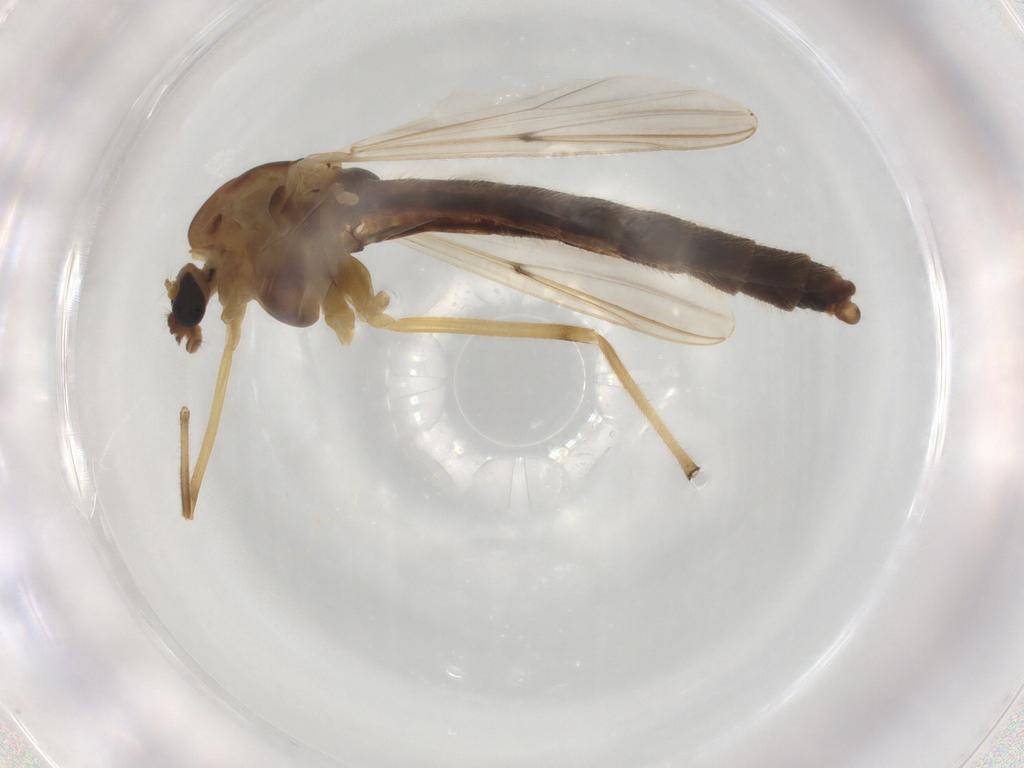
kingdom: Animalia
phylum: Arthropoda
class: Insecta
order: Diptera
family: Chironomidae
